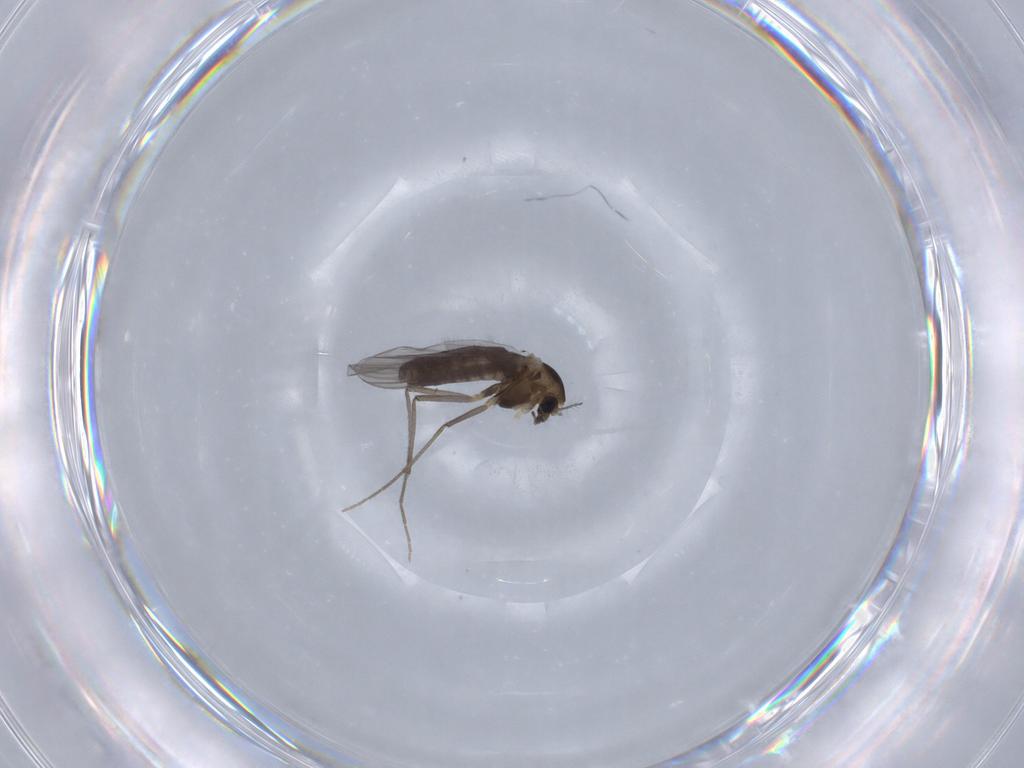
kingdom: Animalia
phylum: Arthropoda
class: Insecta
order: Diptera
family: Chironomidae
